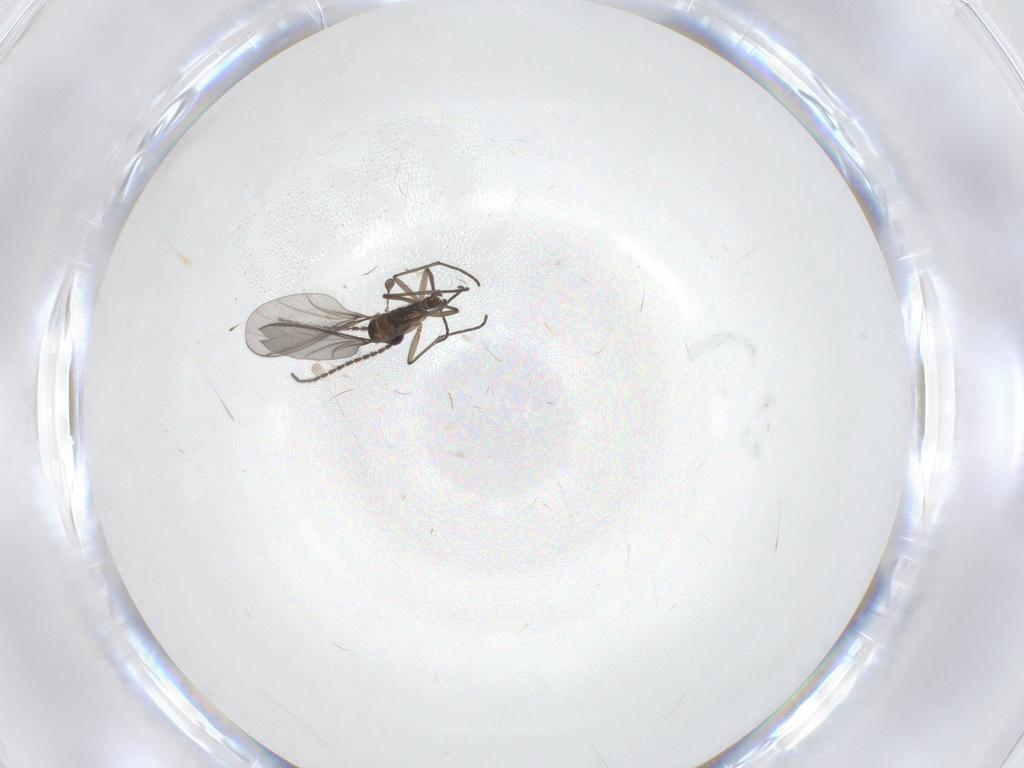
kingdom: Animalia
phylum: Arthropoda
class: Insecta
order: Diptera
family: Sciaridae
